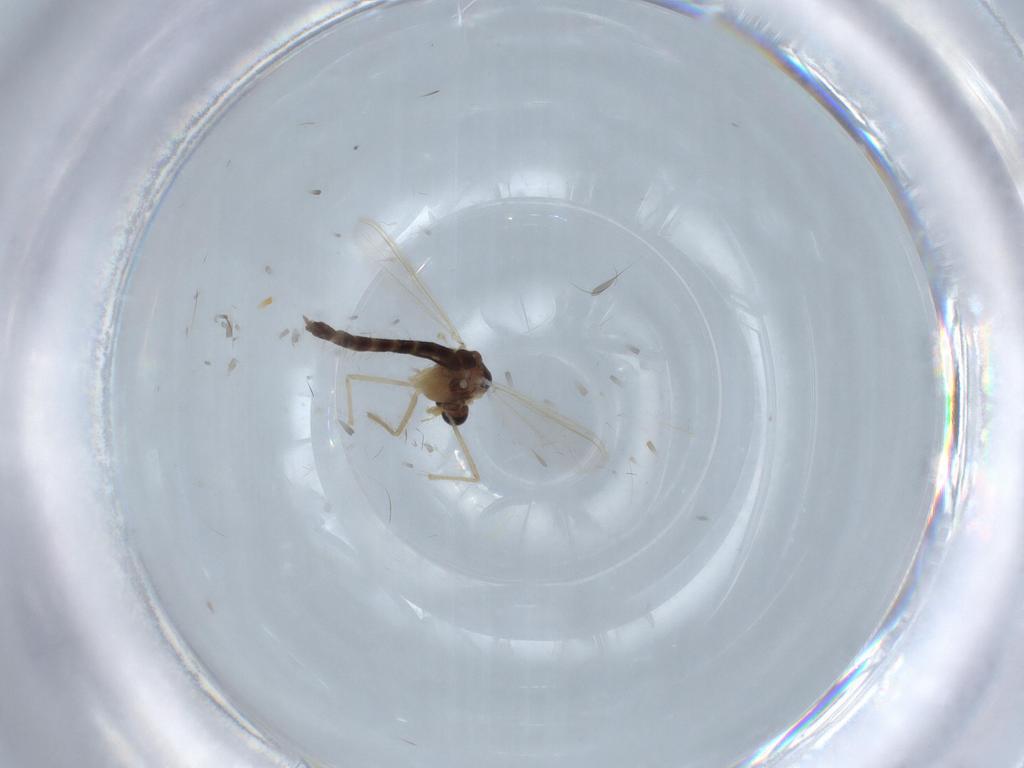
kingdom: Animalia
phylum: Arthropoda
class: Insecta
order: Diptera
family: Chironomidae
